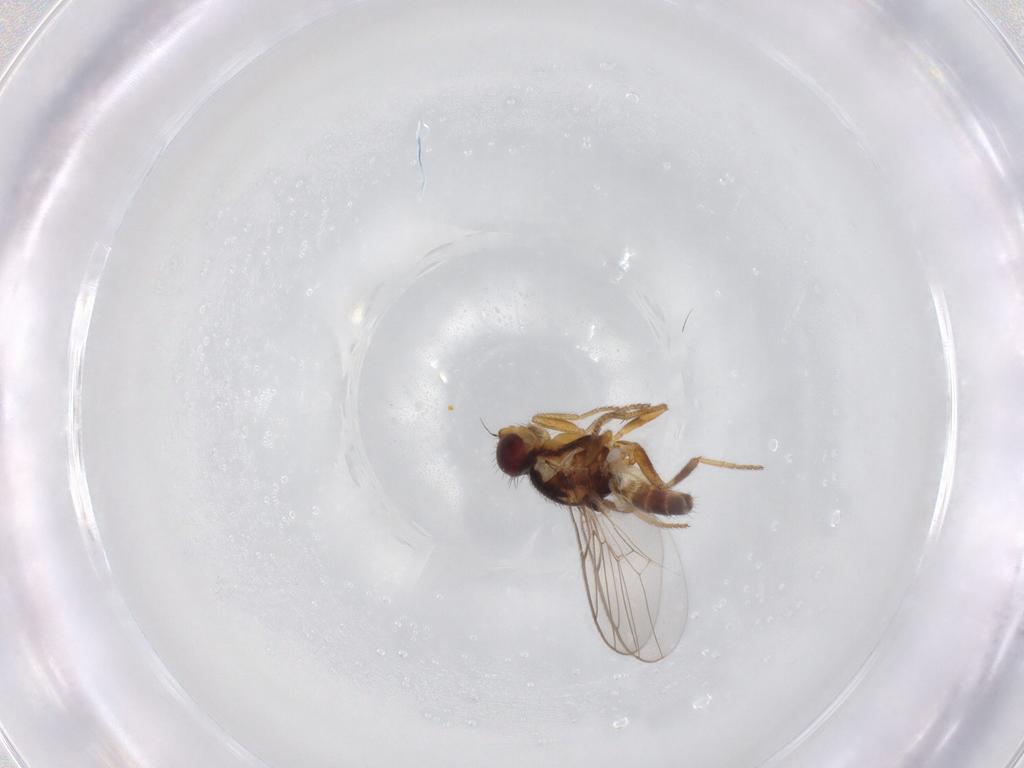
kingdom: Animalia
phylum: Arthropoda
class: Insecta
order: Diptera
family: Chloropidae
